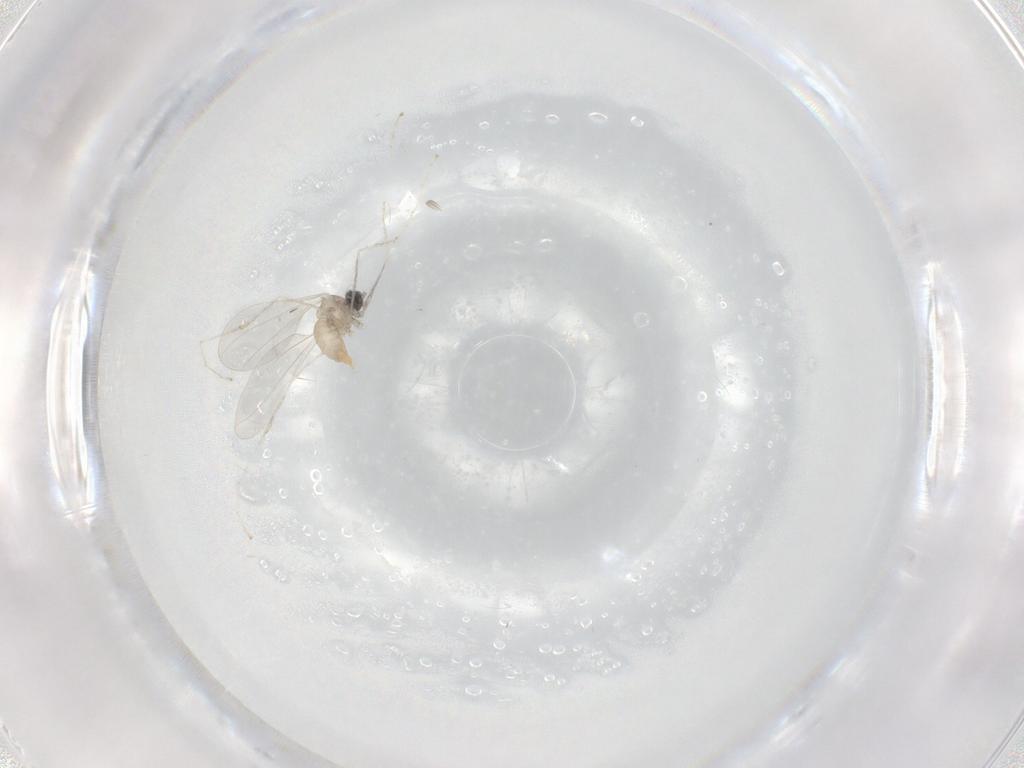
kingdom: Animalia
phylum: Arthropoda
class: Insecta
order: Diptera
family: Cecidomyiidae
